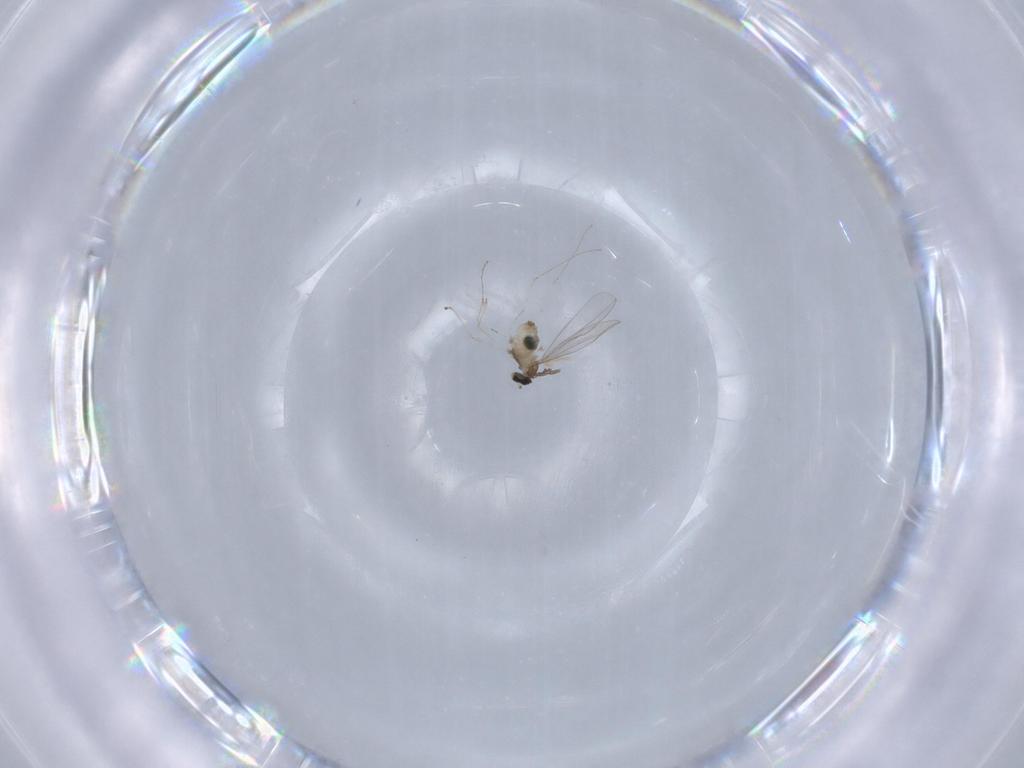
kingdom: Animalia
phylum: Arthropoda
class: Insecta
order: Diptera
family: Cecidomyiidae
